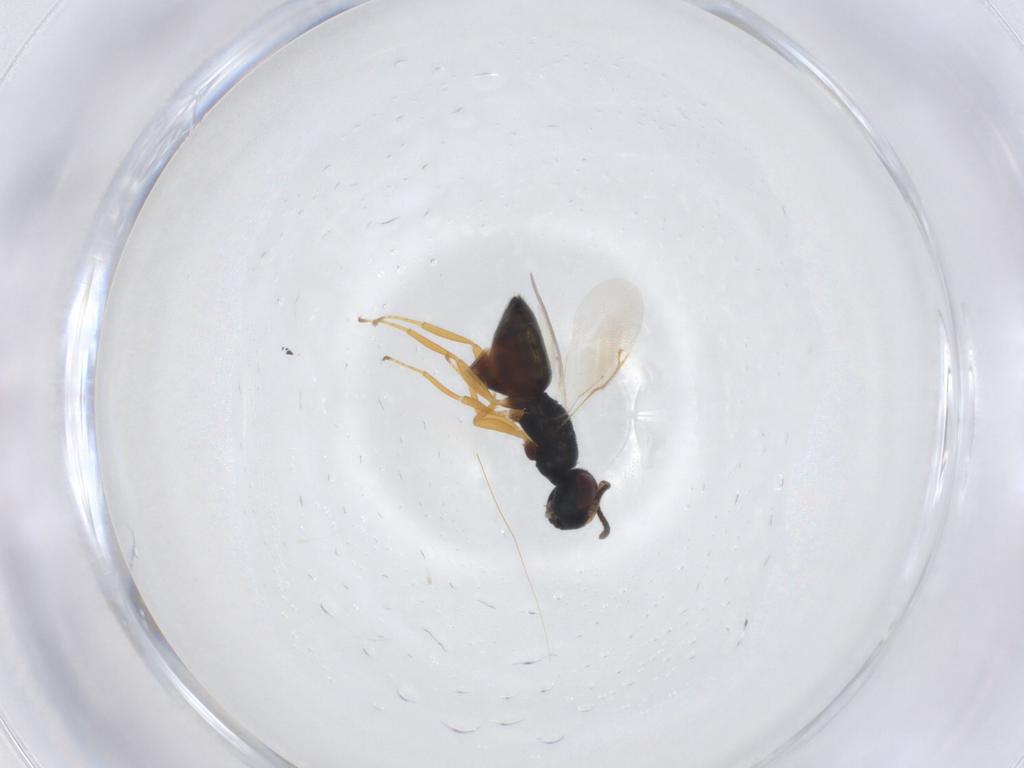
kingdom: Animalia
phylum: Arthropoda
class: Insecta
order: Hymenoptera
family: Pteromalidae
